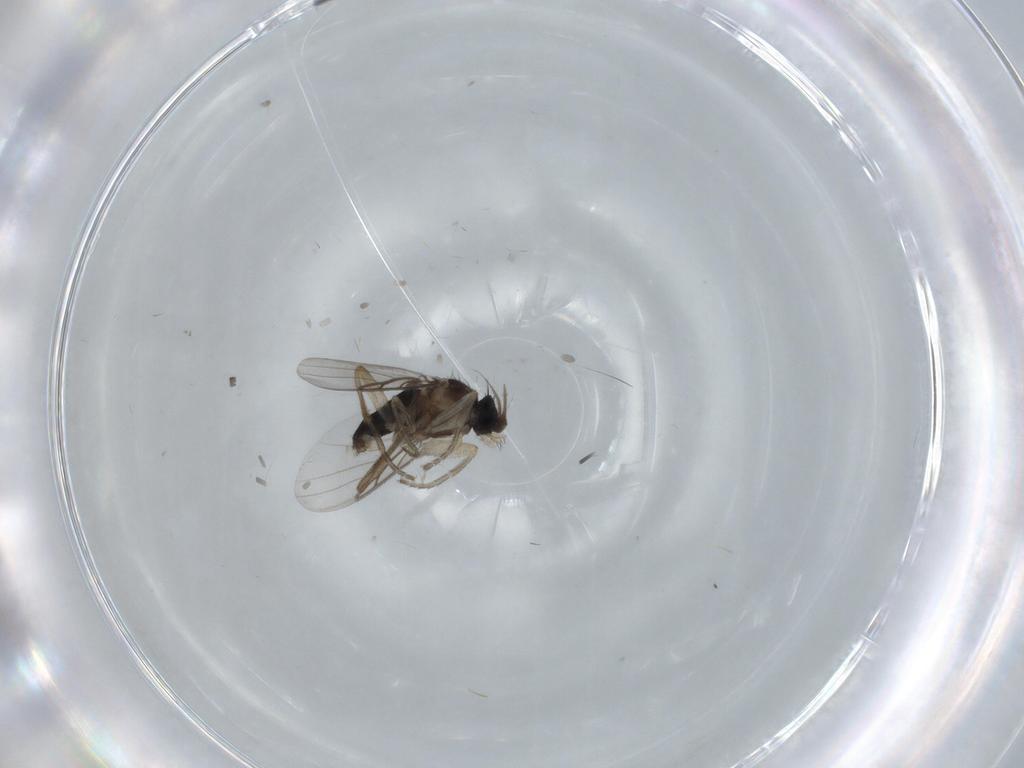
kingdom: Animalia
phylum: Arthropoda
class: Insecta
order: Diptera
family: Phoridae
